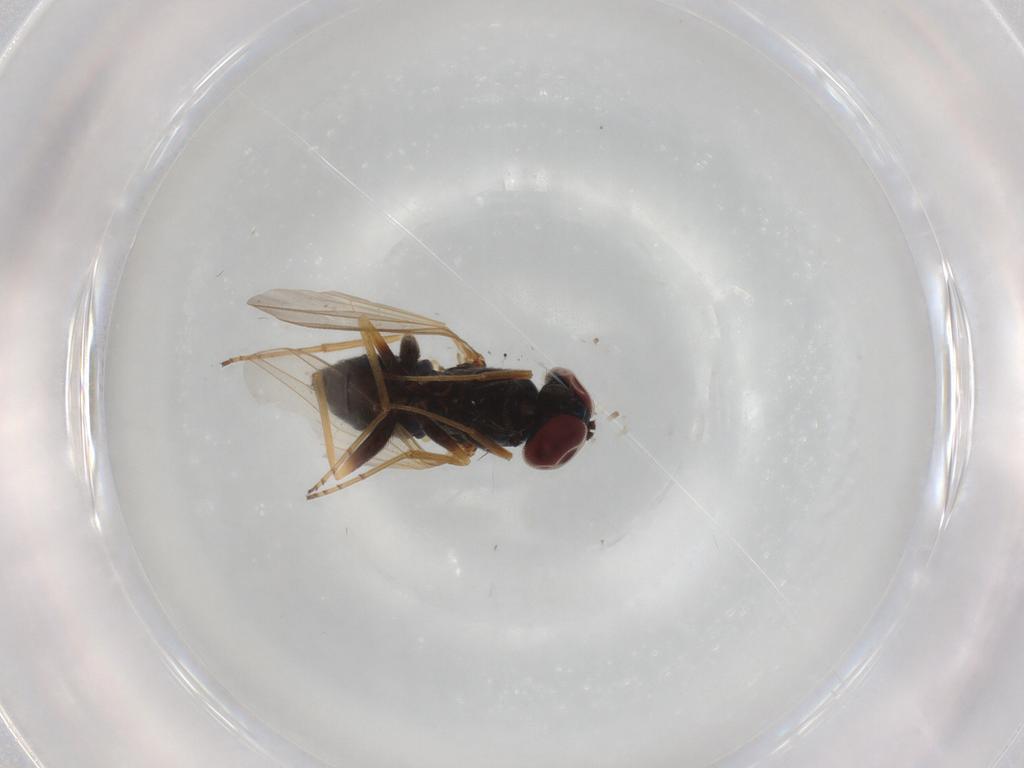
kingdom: Animalia
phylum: Arthropoda
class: Insecta
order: Diptera
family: Dolichopodidae
